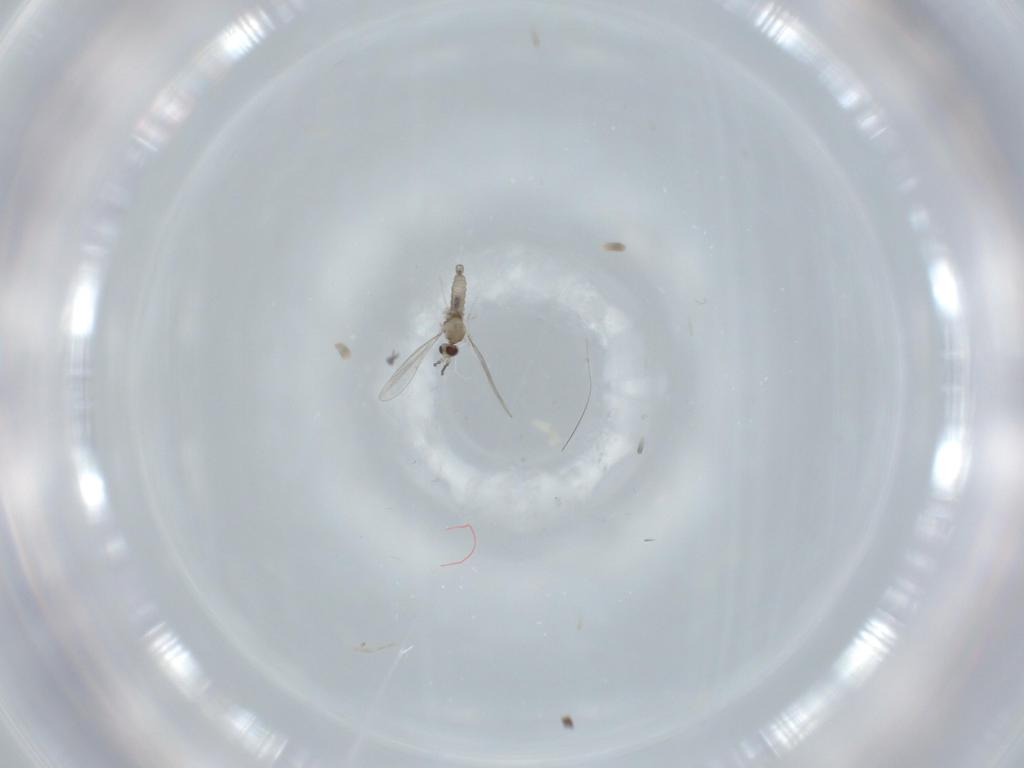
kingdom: Animalia
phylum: Arthropoda
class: Insecta
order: Diptera
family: Cecidomyiidae
